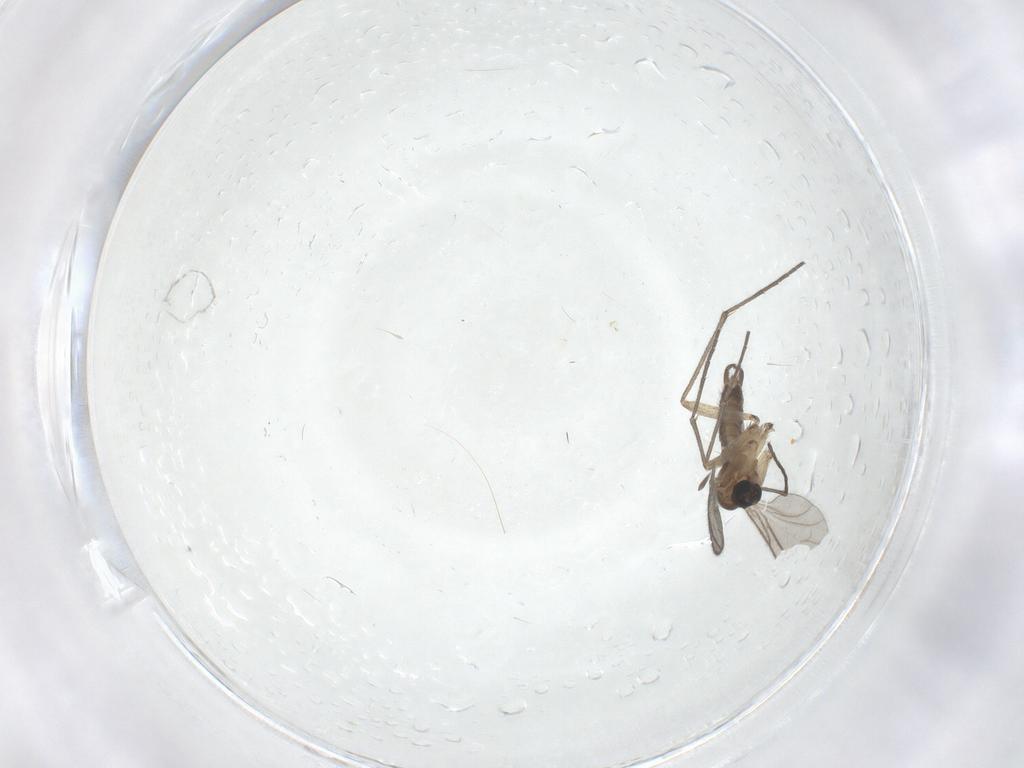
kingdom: Animalia
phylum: Arthropoda
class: Insecta
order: Diptera
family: Sciaridae
